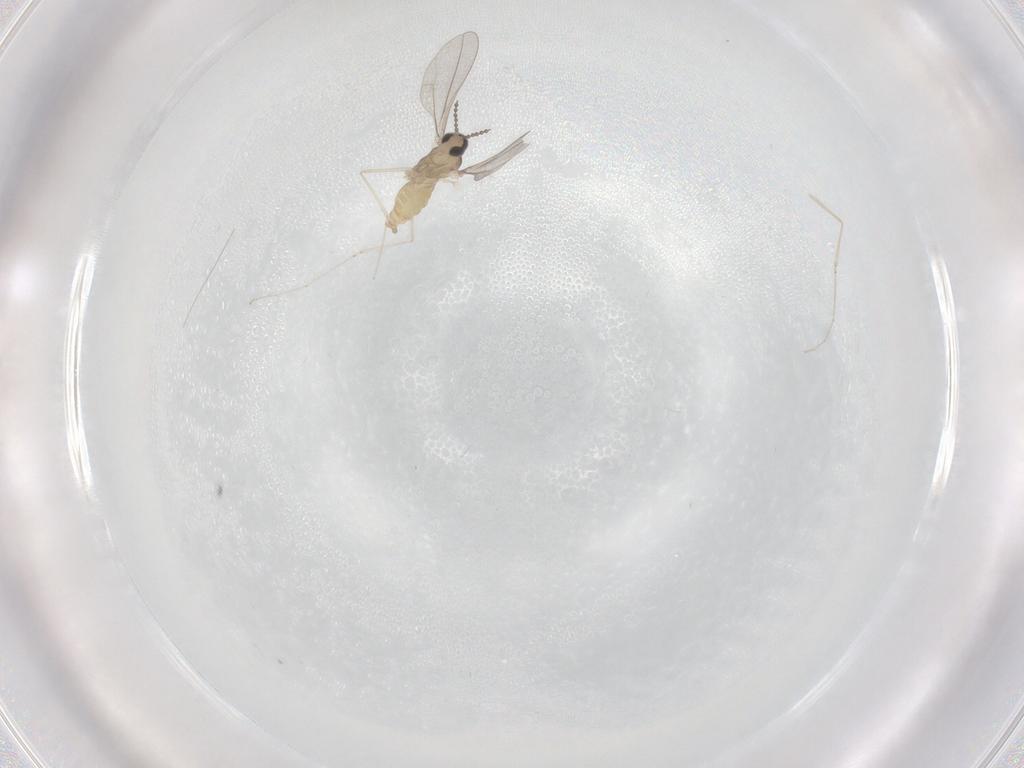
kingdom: Animalia
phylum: Arthropoda
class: Insecta
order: Diptera
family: Cecidomyiidae
